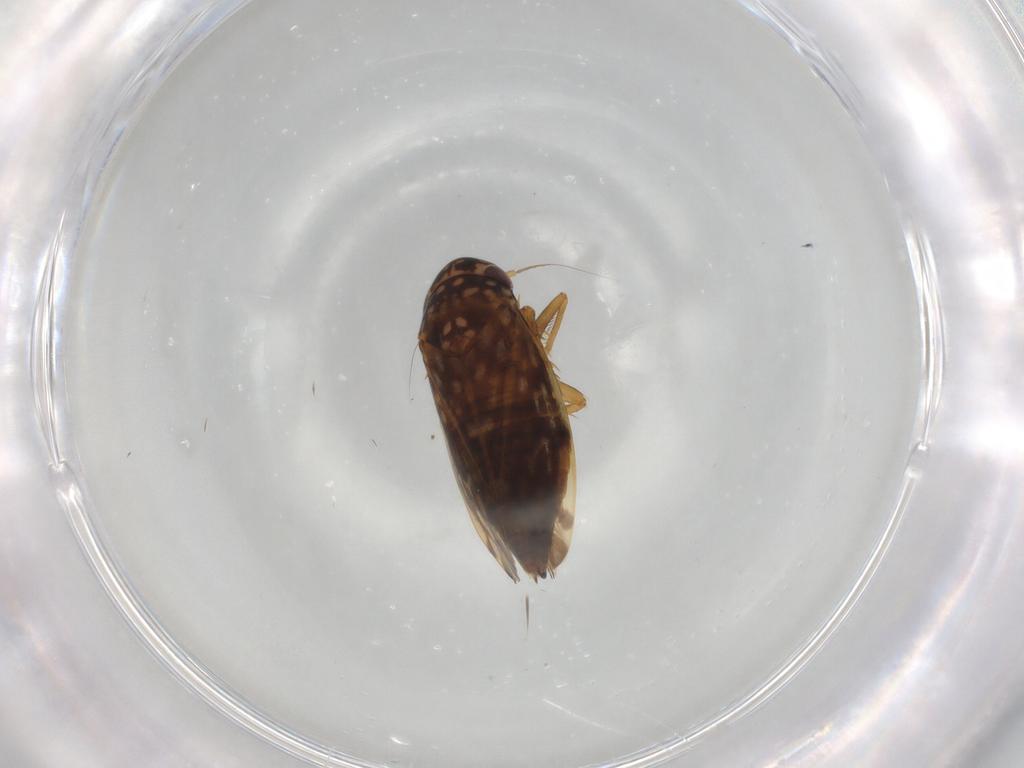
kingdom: Animalia
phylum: Arthropoda
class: Insecta
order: Hemiptera
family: Cicadellidae
